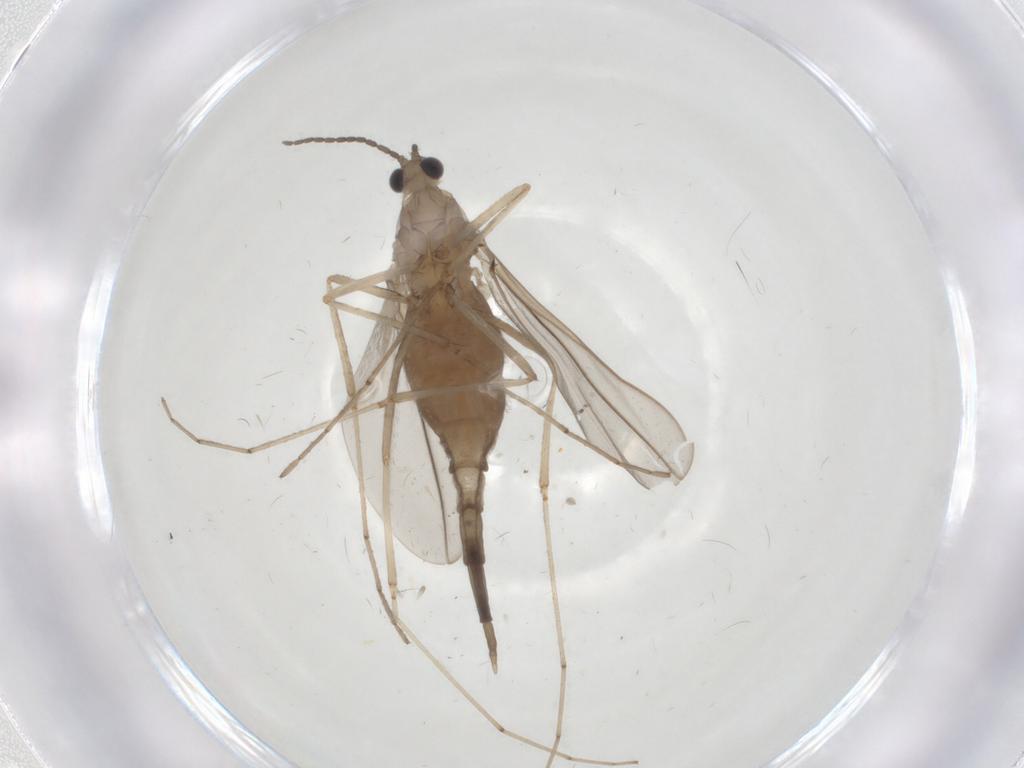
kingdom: Animalia
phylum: Arthropoda
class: Insecta
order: Diptera
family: Cecidomyiidae
